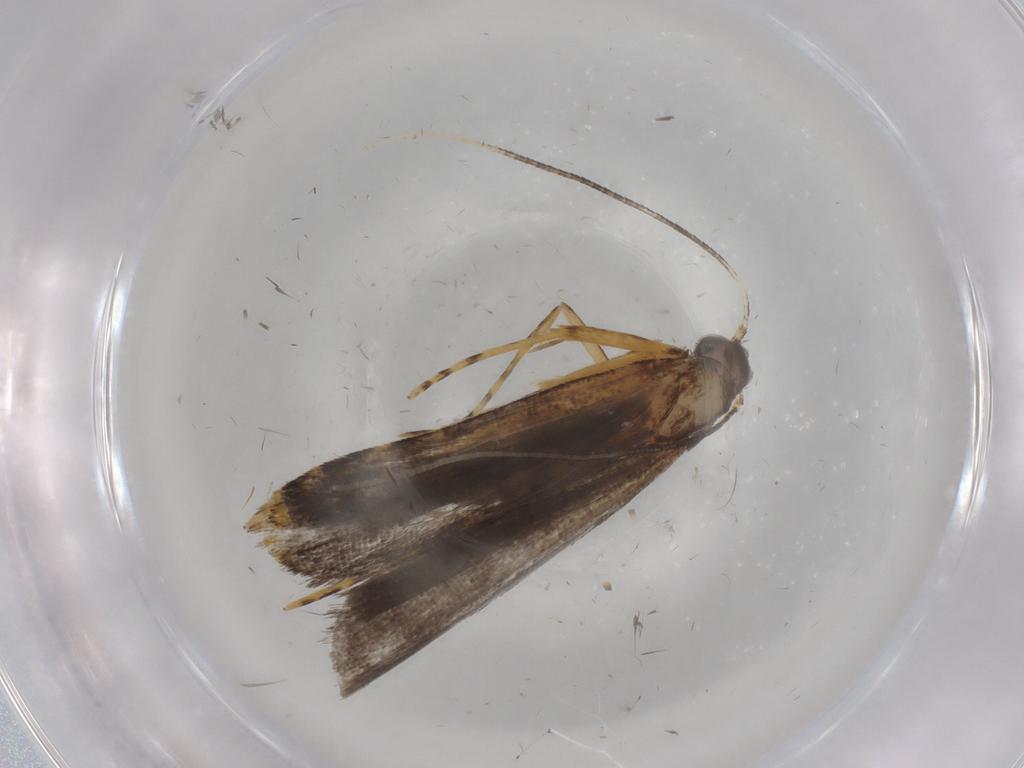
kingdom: Animalia
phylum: Arthropoda
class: Insecta
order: Lepidoptera
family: Cosmopterigidae
